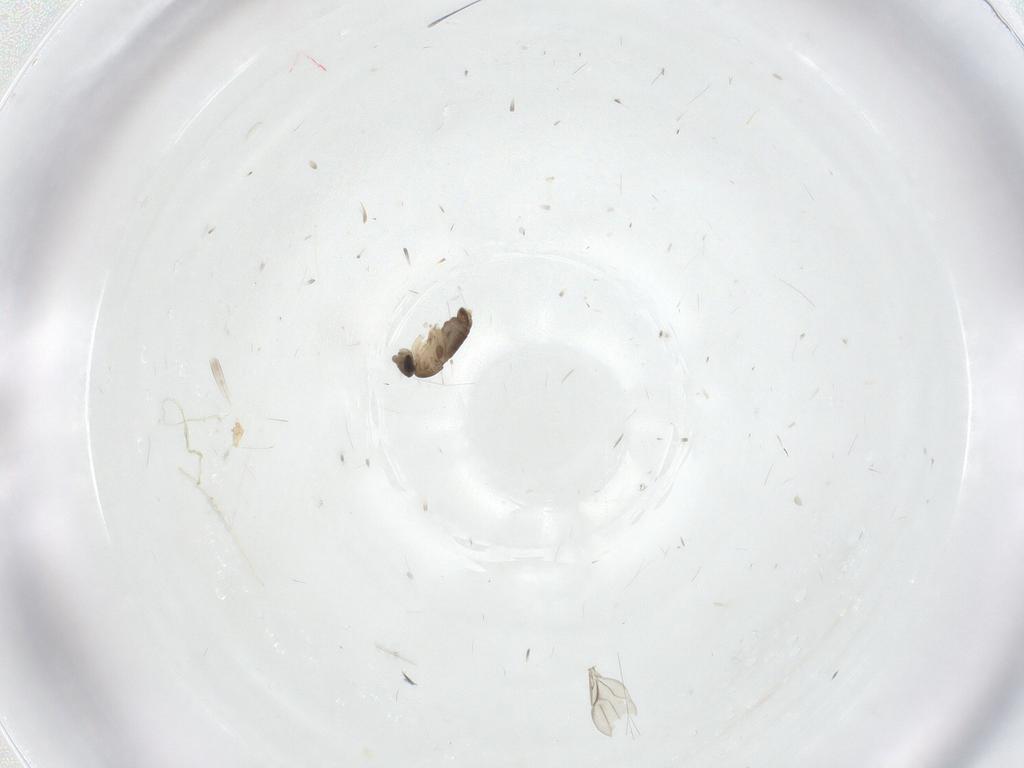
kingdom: Animalia
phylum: Arthropoda
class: Insecta
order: Diptera
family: Phoridae
